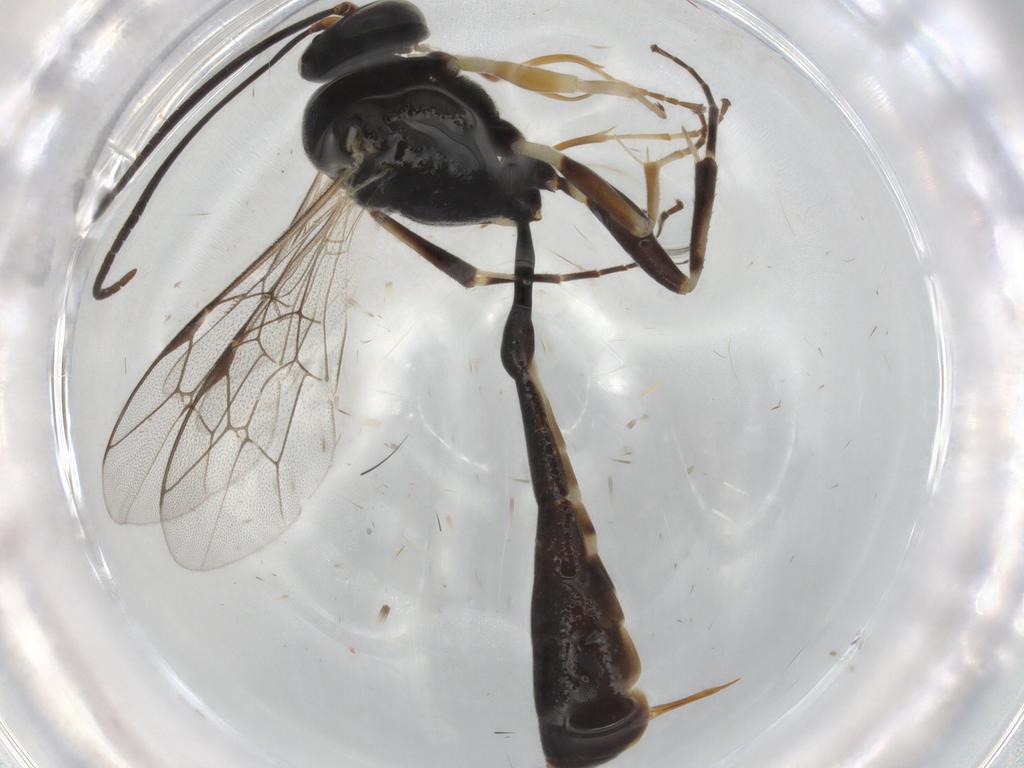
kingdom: Animalia
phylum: Arthropoda
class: Insecta
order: Hymenoptera
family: Ichneumonidae
